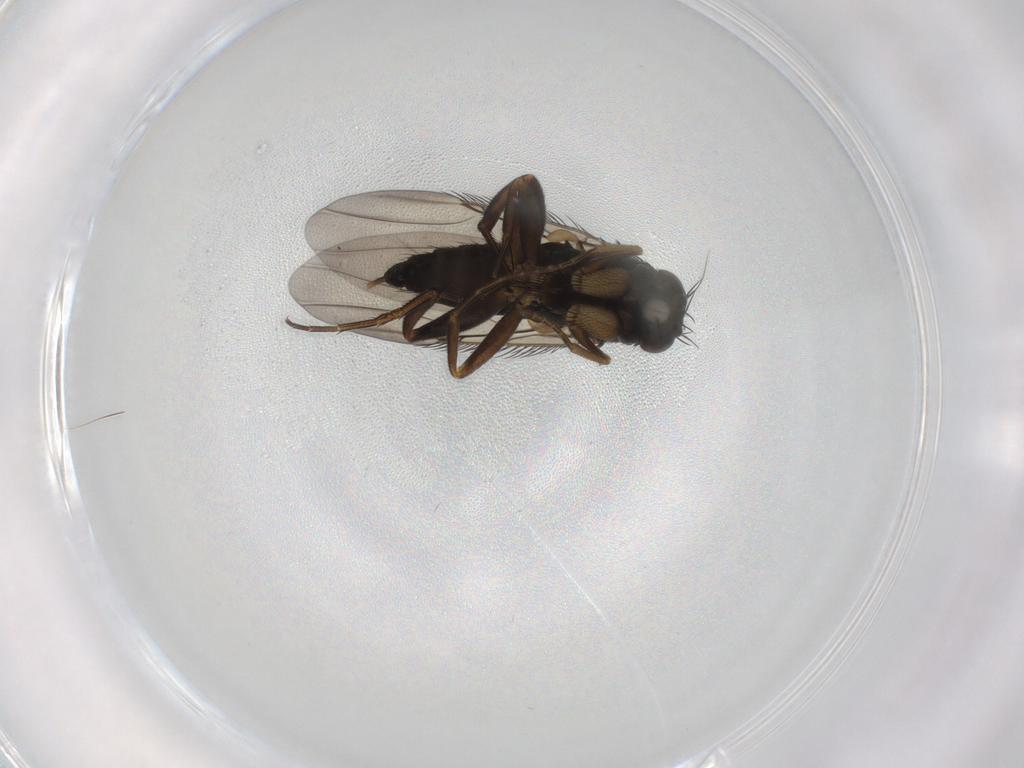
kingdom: Animalia
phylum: Arthropoda
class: Insecta
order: Diptera
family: Phoridae
